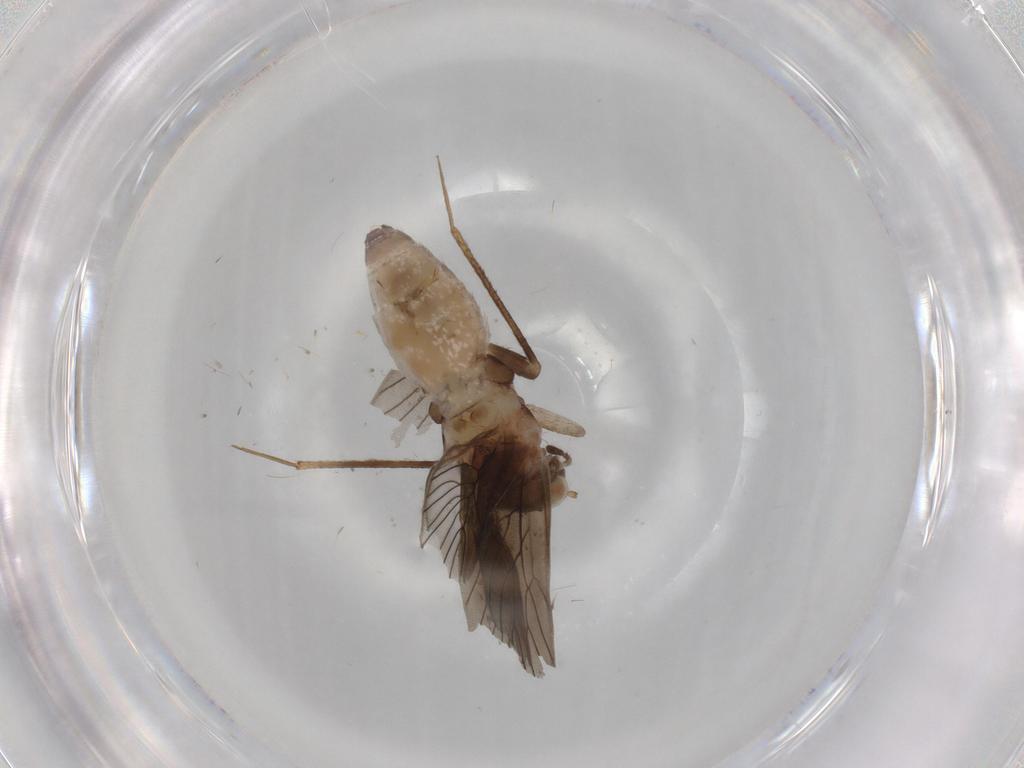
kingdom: Animalia
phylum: Arthropoda
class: Insecta
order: Psocodea
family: Lepidopsocidae
